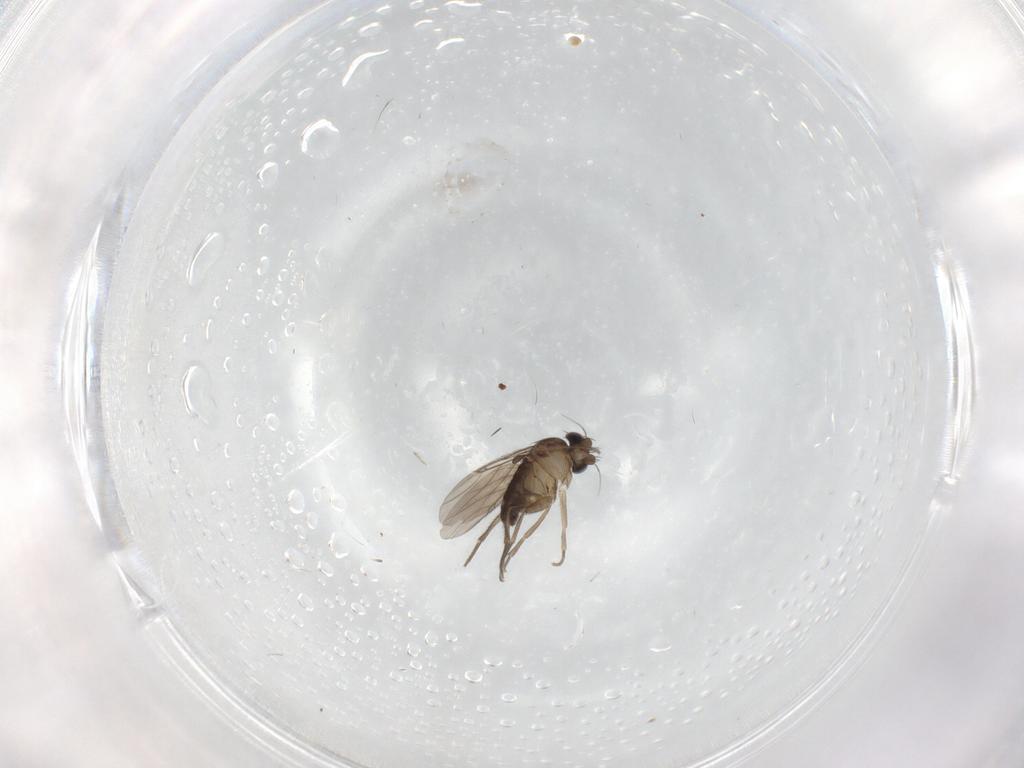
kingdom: Animalia
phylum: Arthropoda
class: Insecta
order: Diptera
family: Phoridae
